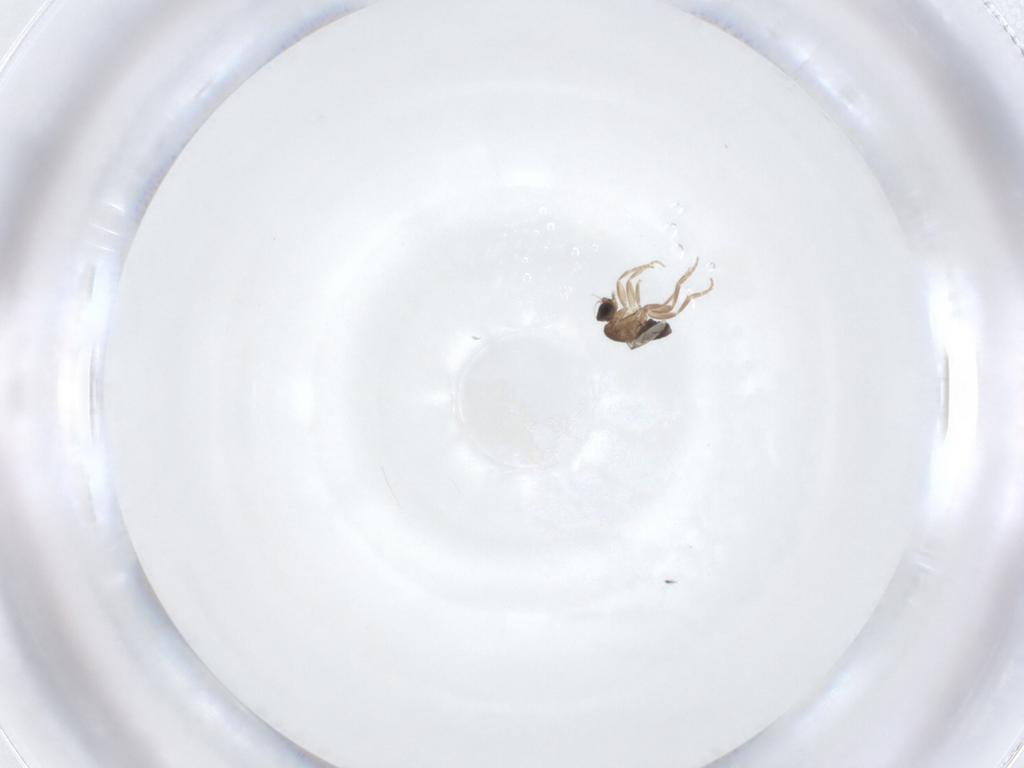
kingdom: Animalia
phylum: Arthropoda
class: Insecta
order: Diptera
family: Phoridae
